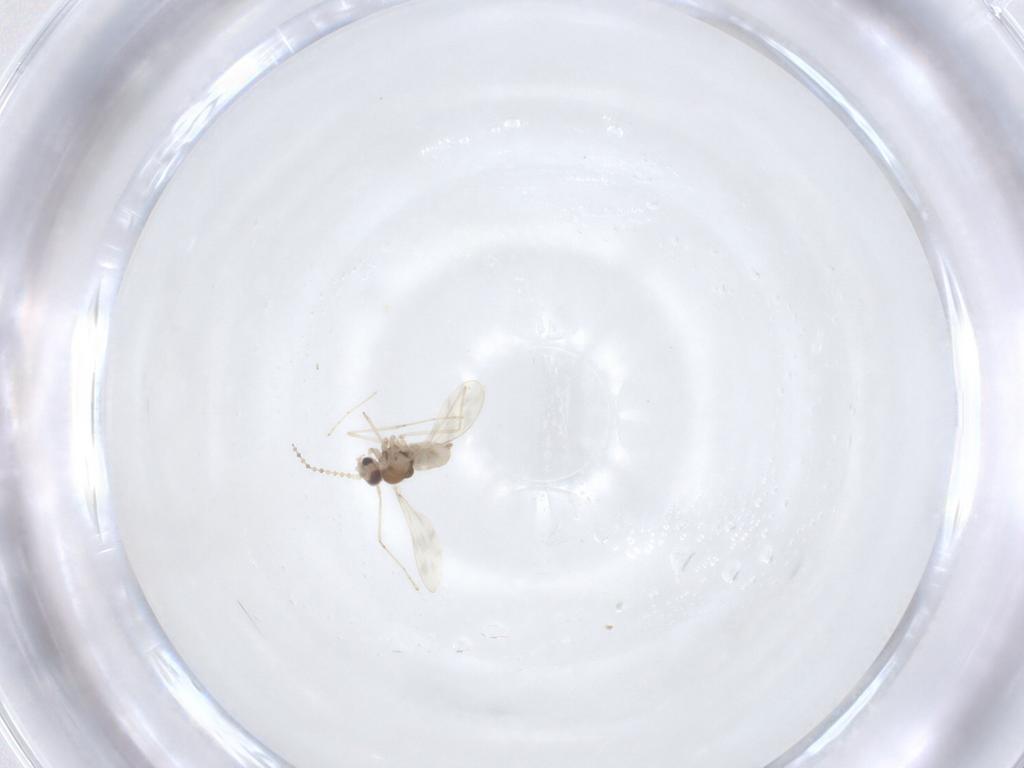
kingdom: Animalia
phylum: Arthropoda
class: Insecta
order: Diptera
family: Cecidomyiidae
